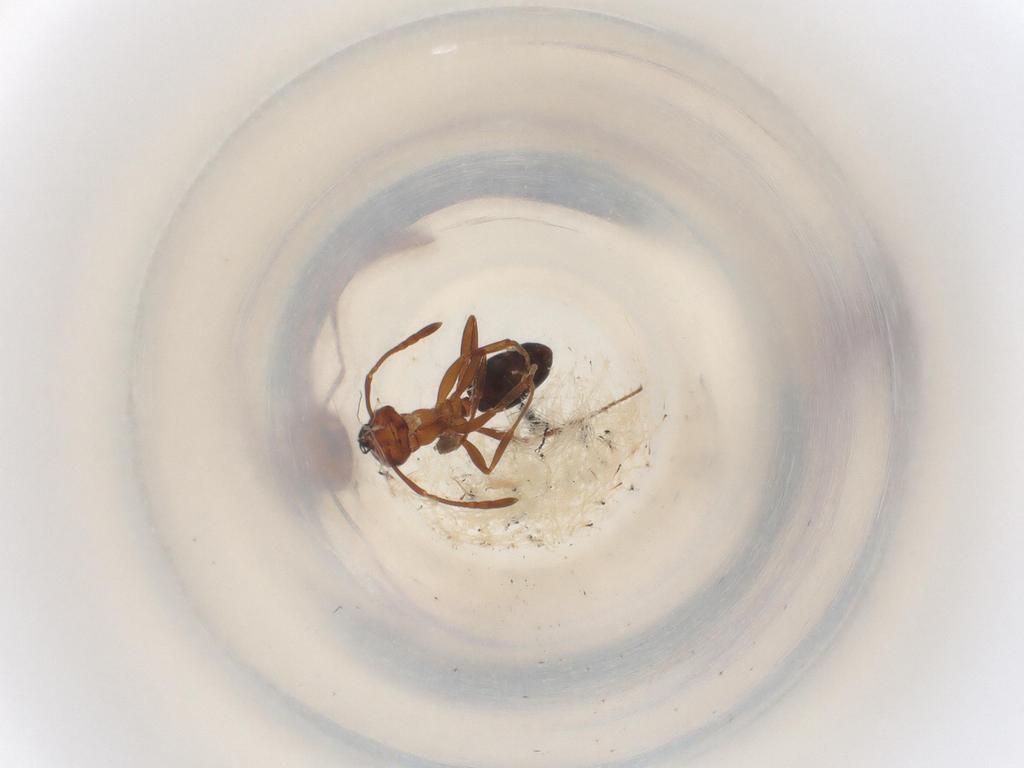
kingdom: Animalia
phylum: Arthropoda
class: Insecta
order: Hymenoptera
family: Formicidae
